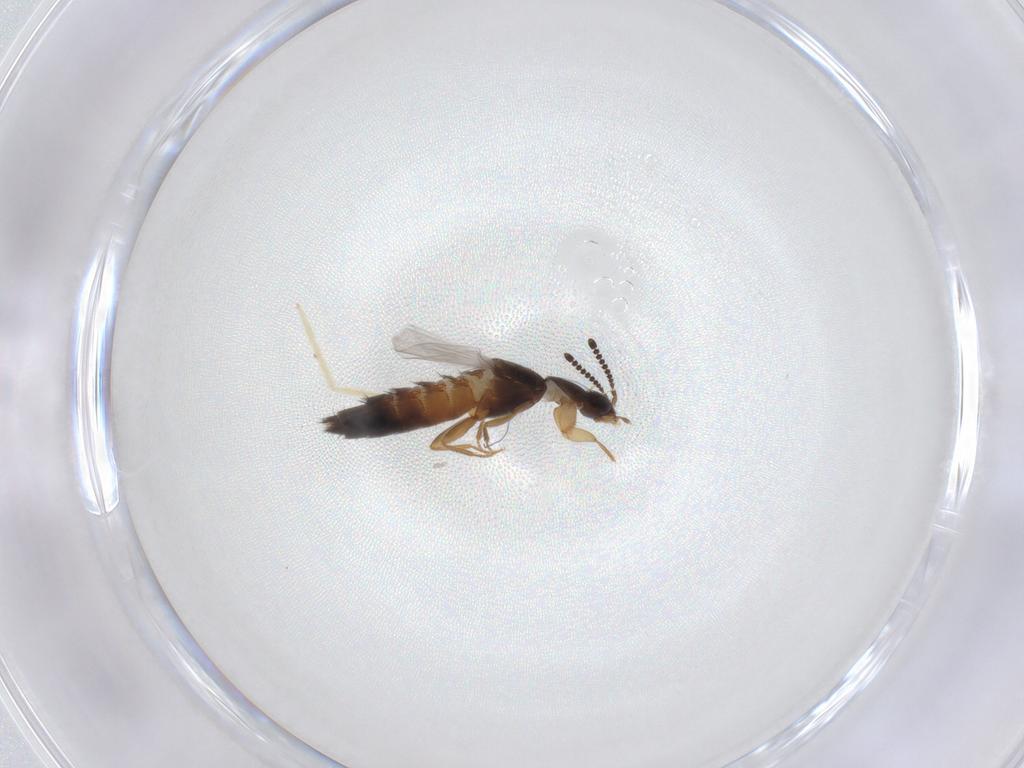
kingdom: Animalia
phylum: Arthropoda
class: Insecta
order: Coleoptera
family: Staphylinidae
